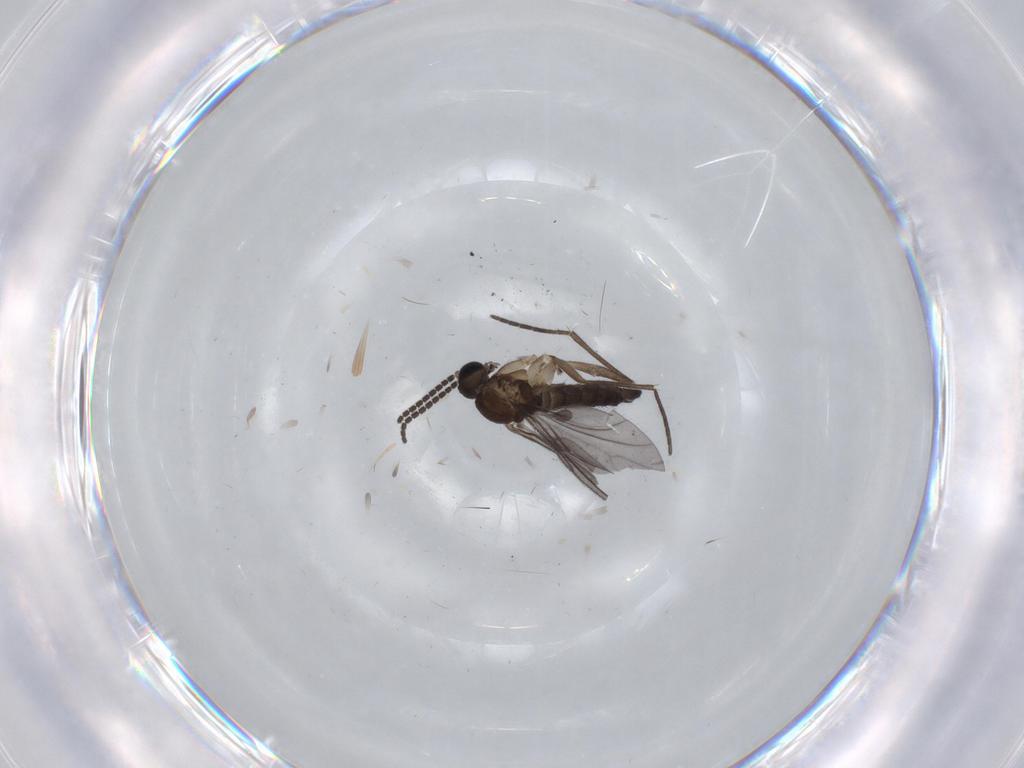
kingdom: Animalia
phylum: Arthropoda
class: Insecta
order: Diptera
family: Sciaridae
